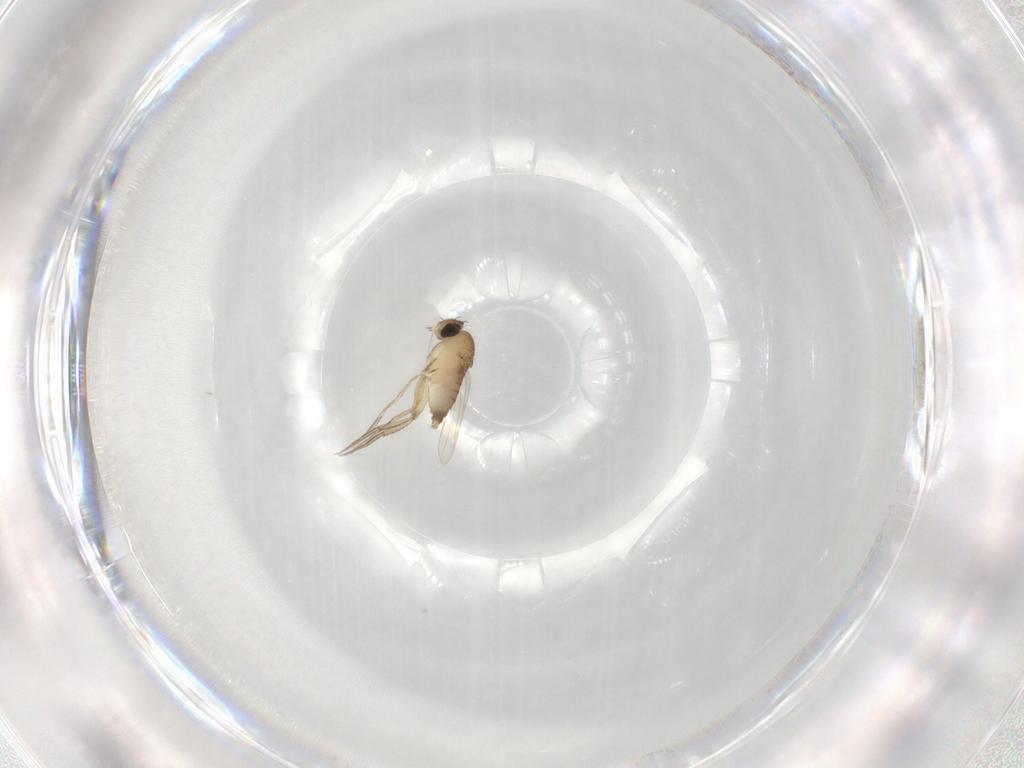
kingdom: Animalia
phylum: Arthropoda
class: Insecta
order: Diptera
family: Phoridae
